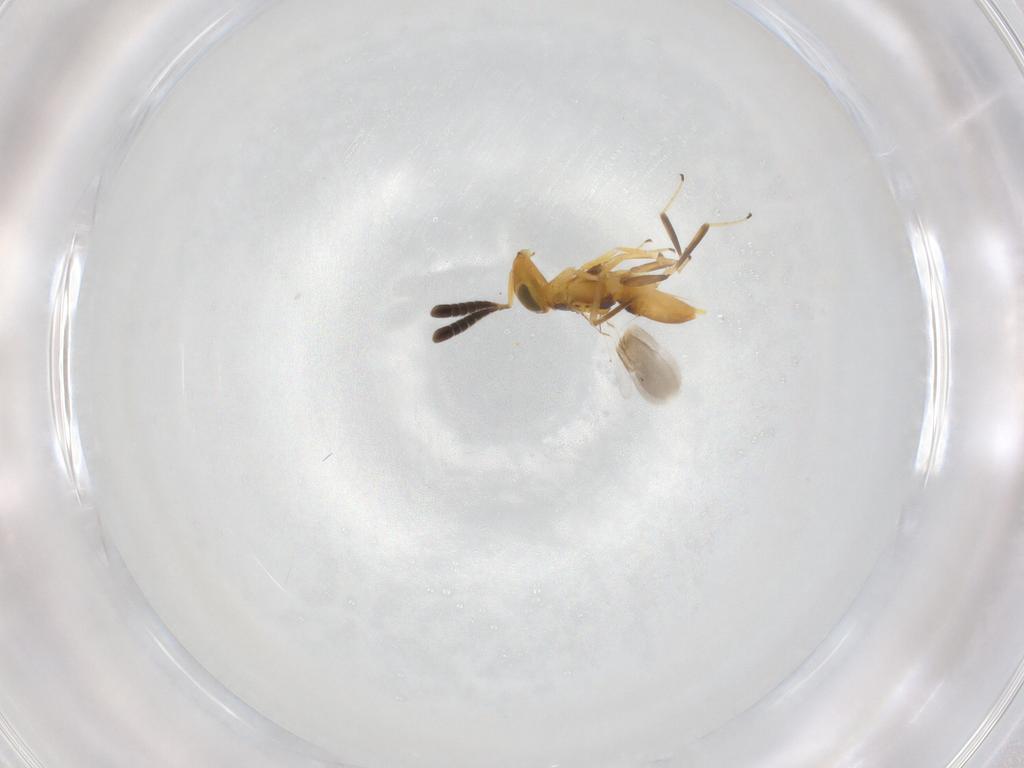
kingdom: Animalia
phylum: Arthropoda
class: Insecta
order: Hymenoptera
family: Encyrtidae
